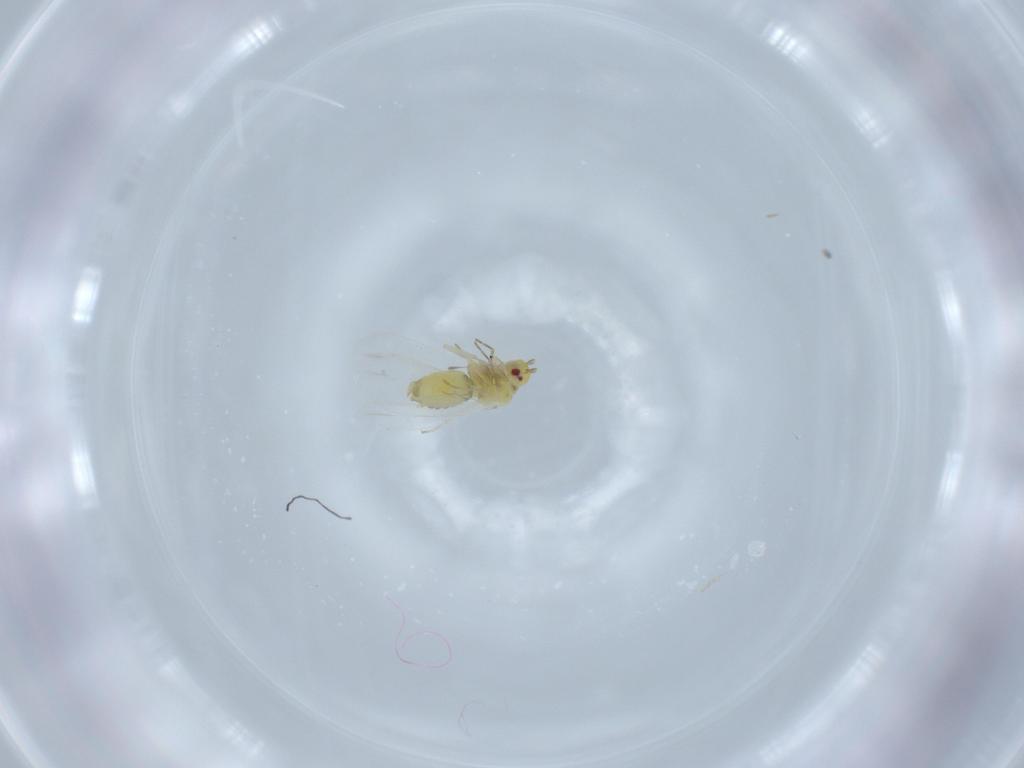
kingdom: Animalia
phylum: Arthropoda
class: Insecta
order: Hemiptera
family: Aleyrodidae
